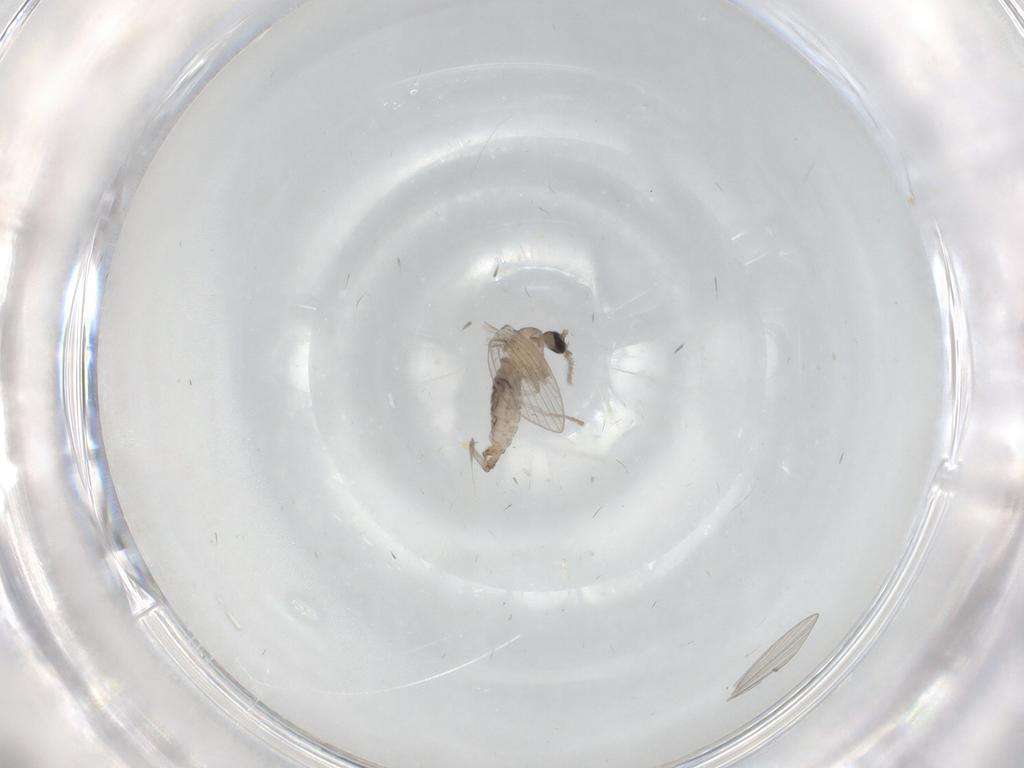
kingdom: Animalia
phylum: Arthropoda
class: Insecta
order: Diptera
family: Psychodidae
